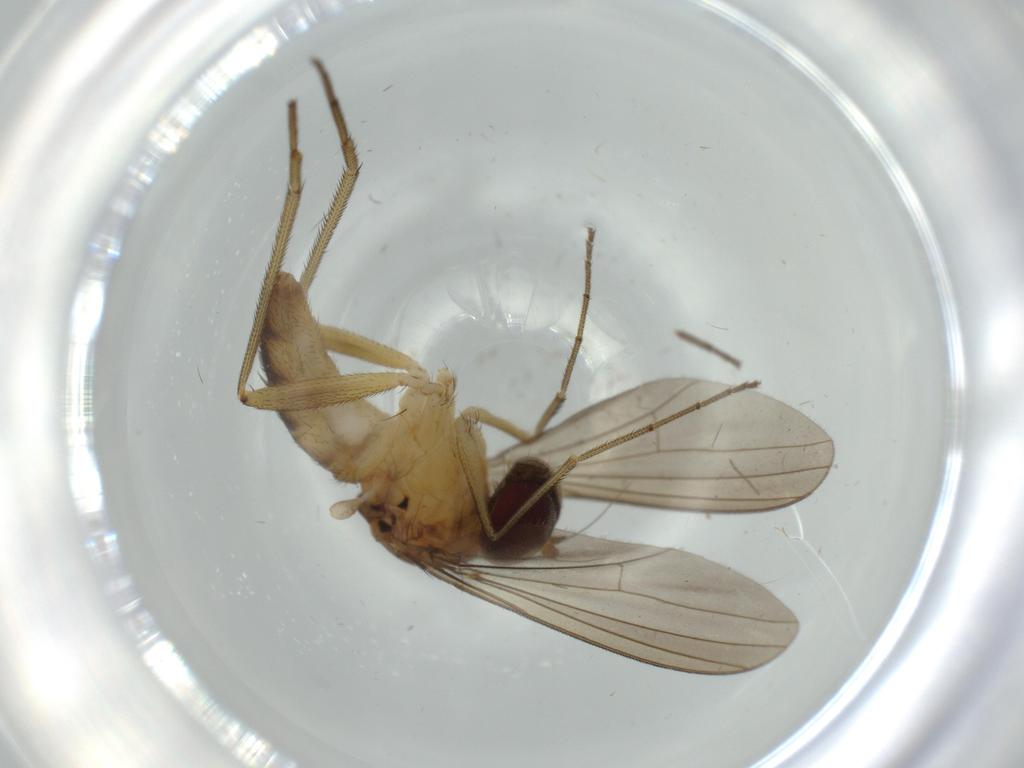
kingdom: Animalia
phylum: Arthropoda
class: Insecta
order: Diptera
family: Dolichopodidae
